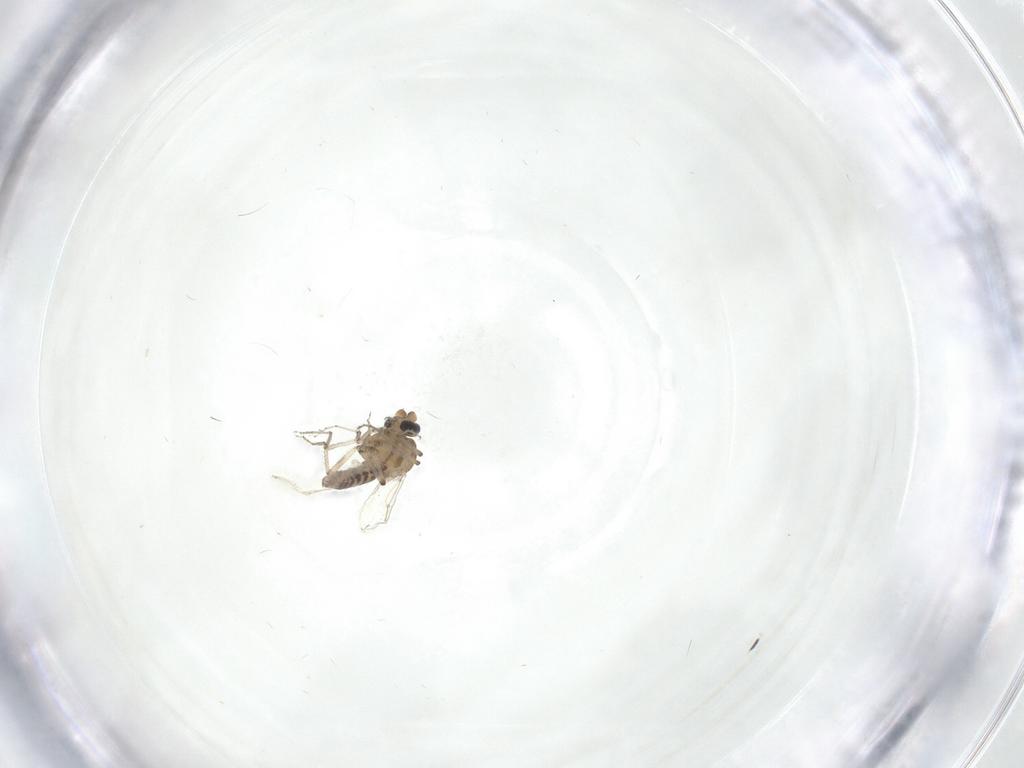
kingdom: Animalia
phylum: Arthropoda
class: Insecta
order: Diptera
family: Ceratopogonidae
